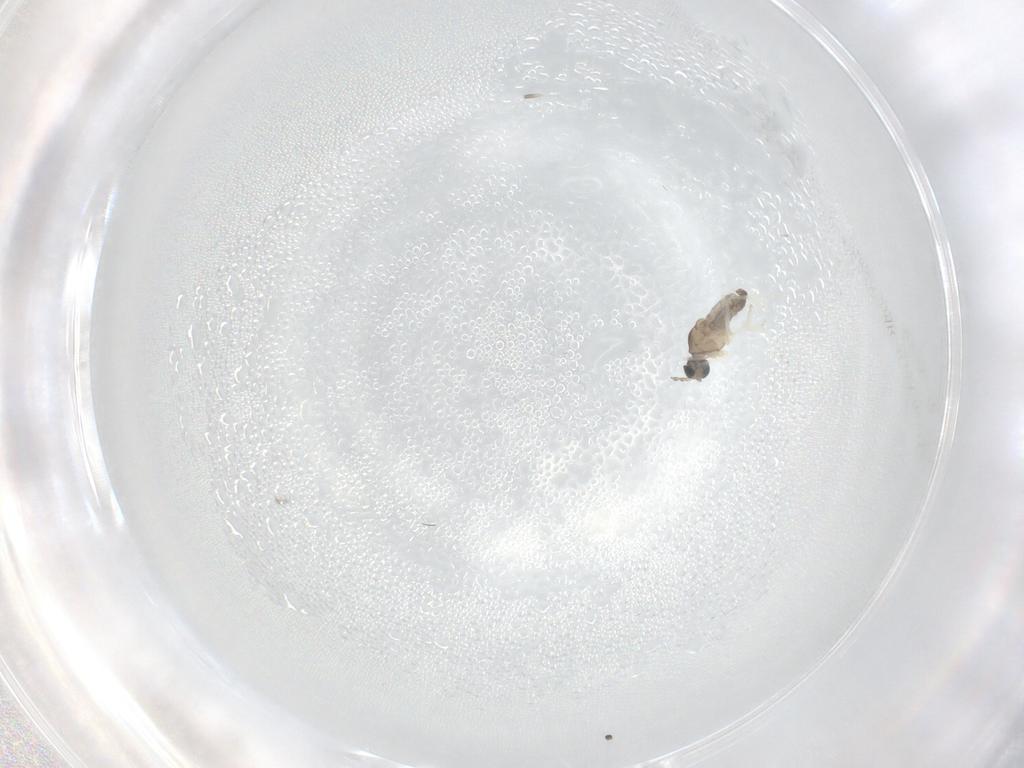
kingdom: Animalia
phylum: Arthropoda
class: Insecta
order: Diptera
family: Cecidomyiidae
